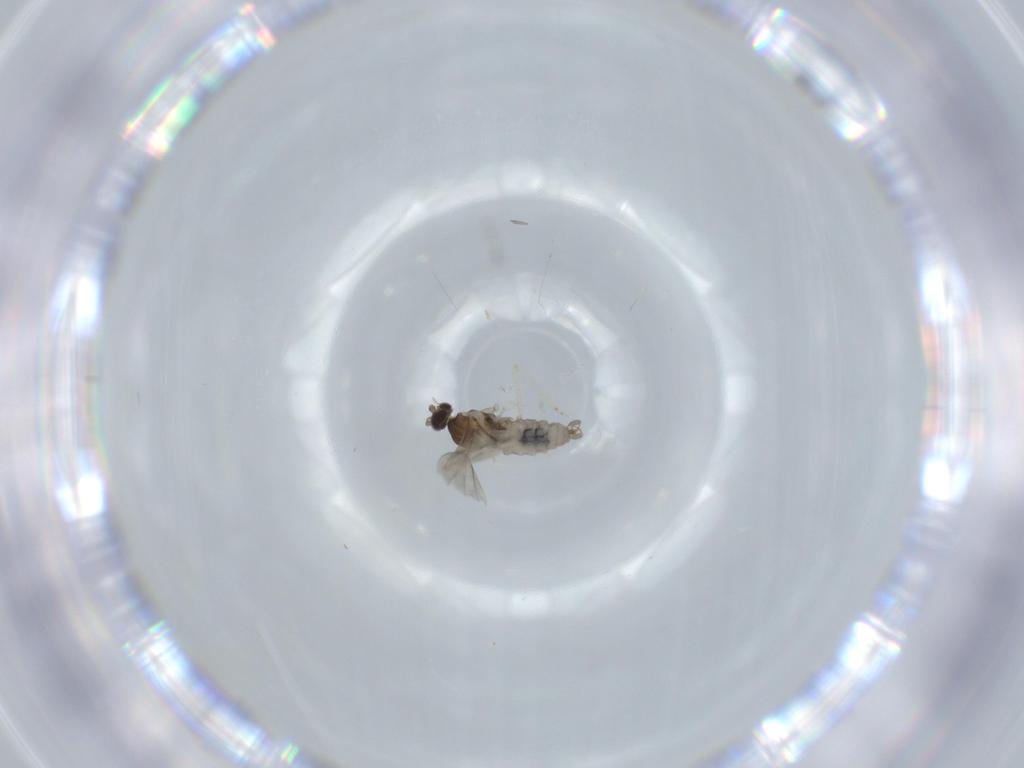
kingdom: Animalia
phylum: Arthropoda
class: Insecta
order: Diptera
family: Cecidomyiidae
